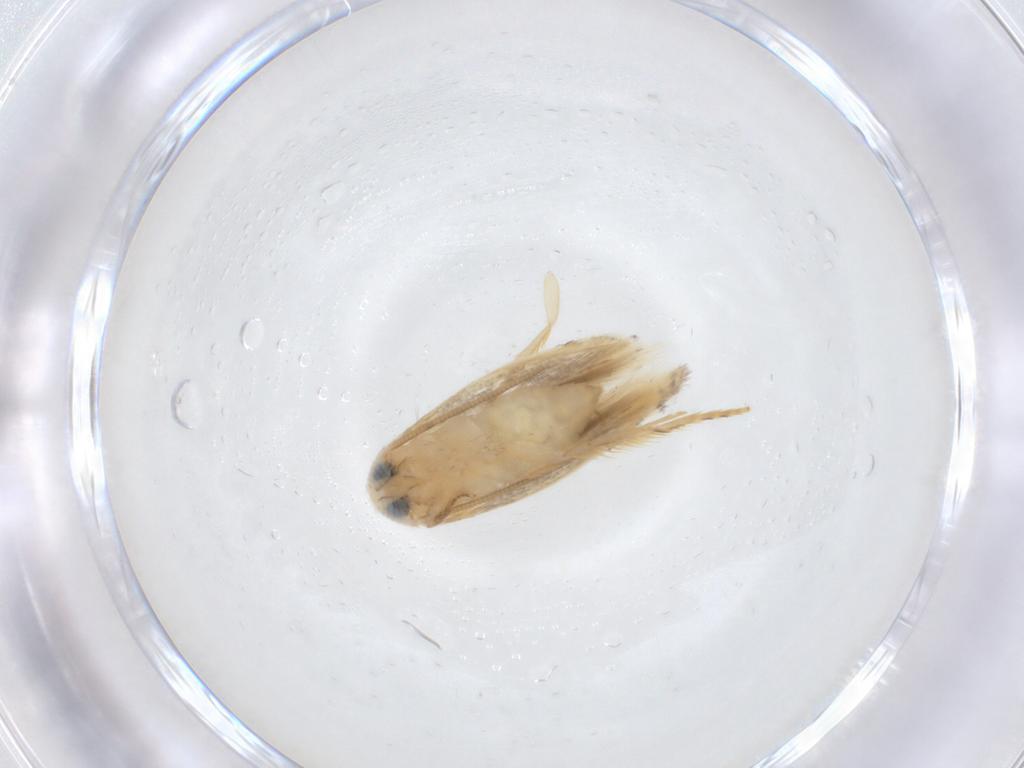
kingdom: Animalia
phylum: Arthropoda
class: Insecta
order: Lepidoptera
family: Opostegidae
